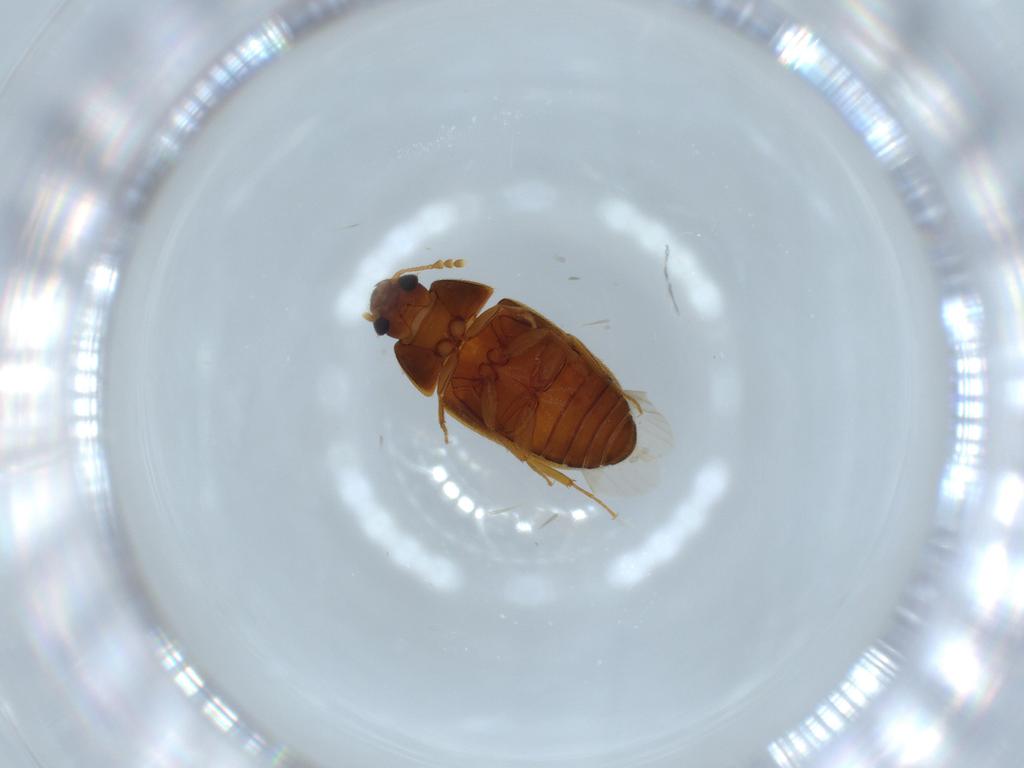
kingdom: Animalia
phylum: Arthropoda
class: Insecta
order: Coleoptera
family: Mycetophagidae
